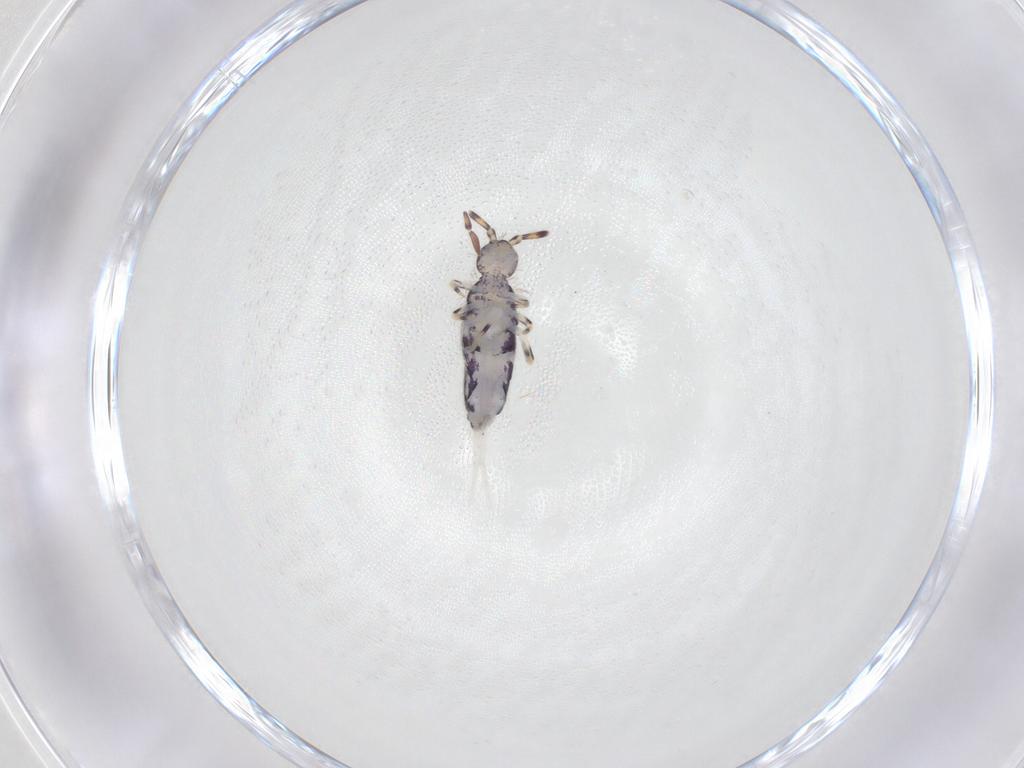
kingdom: Animalia
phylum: Arthropoda
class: Collembola
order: Entomobryomorpha
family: Entomobryidae
